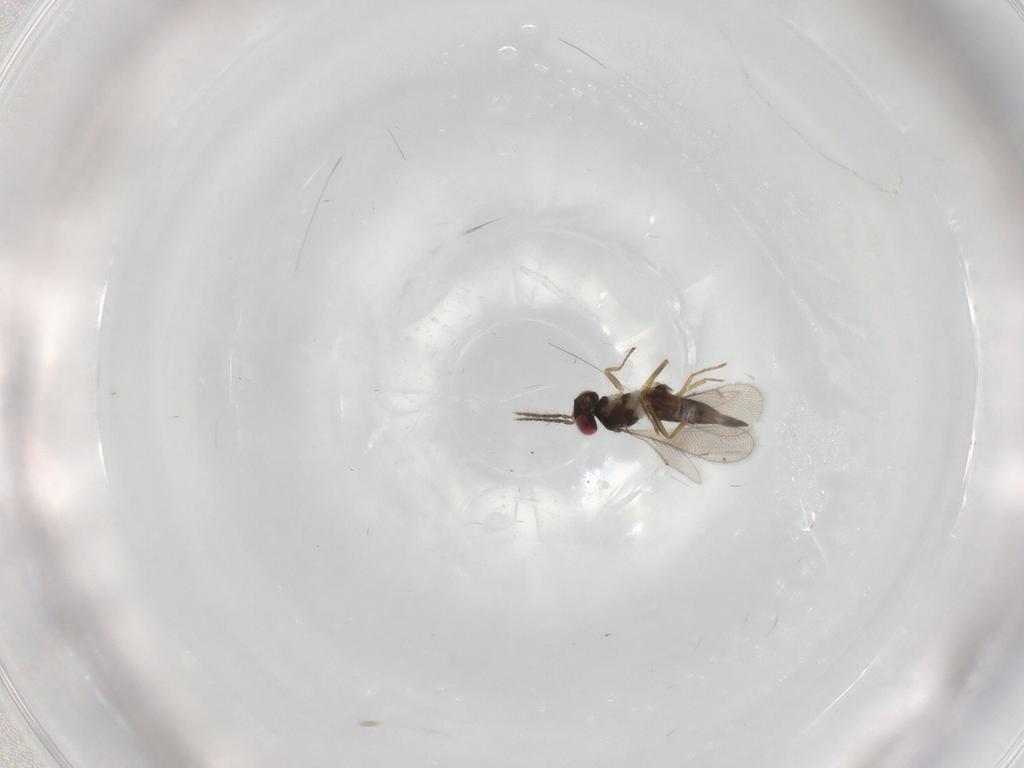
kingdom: Animalia
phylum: Arthropoda
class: Insecta
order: Hymenoptera
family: Eulophidae
